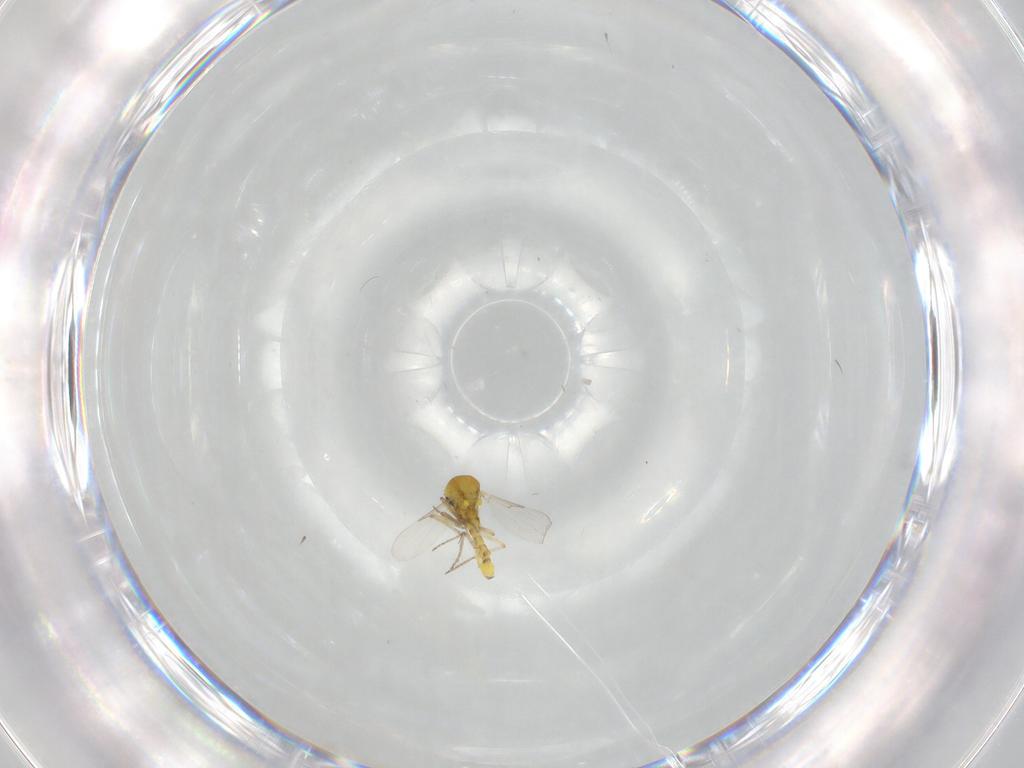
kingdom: Animalia
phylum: Arthropoda
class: Insecta
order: Diptera
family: Ceratopogonidae
